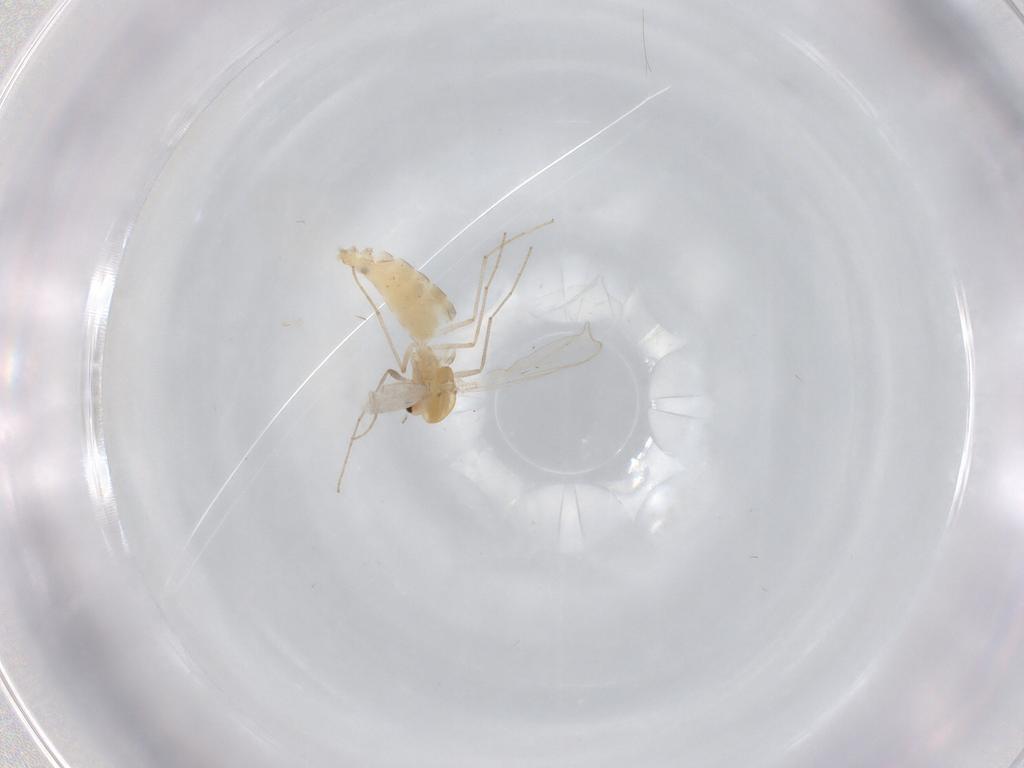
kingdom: Animalia
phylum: Arthropoda
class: Insecta
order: Diptera
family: Chironomidae
